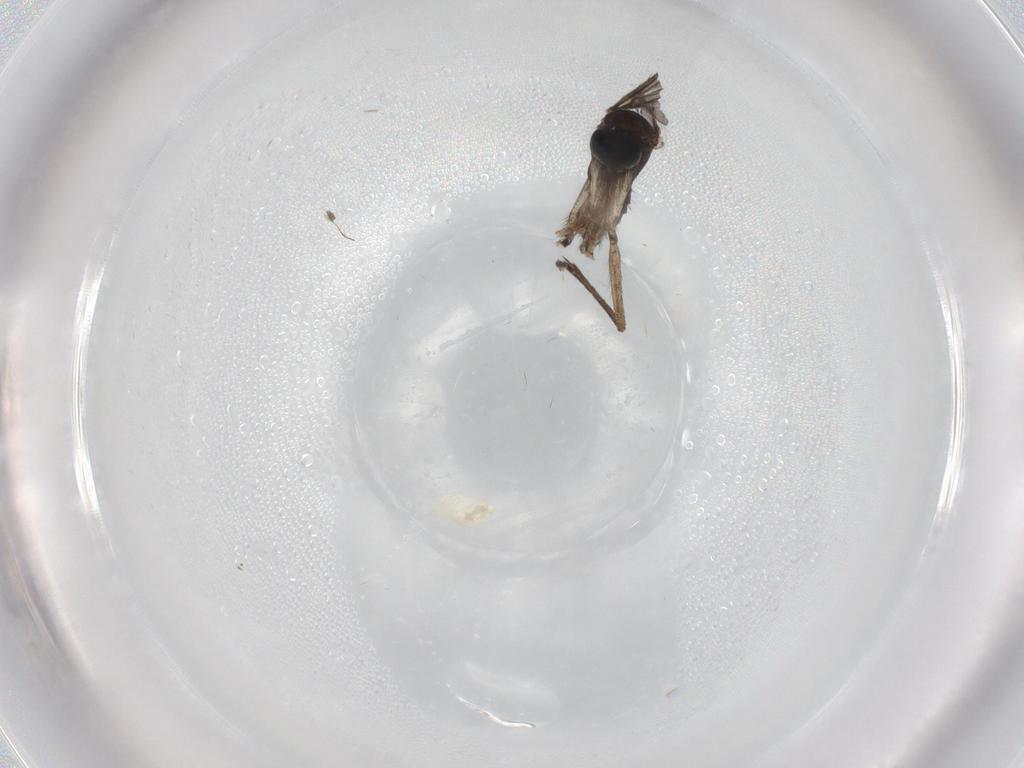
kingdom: Animalia
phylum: Arthropoda
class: Insecta
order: Diptera
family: Sciaridae
